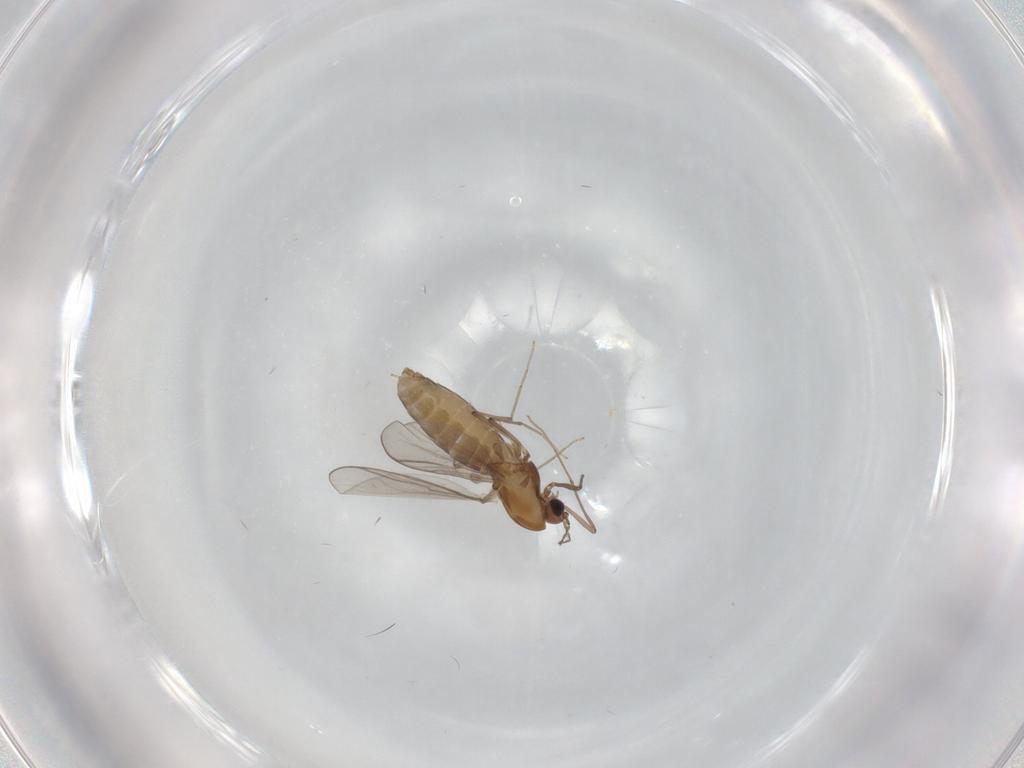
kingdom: Animalia
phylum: Arthropoda
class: Insecta
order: Diptera
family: Chironomidae
